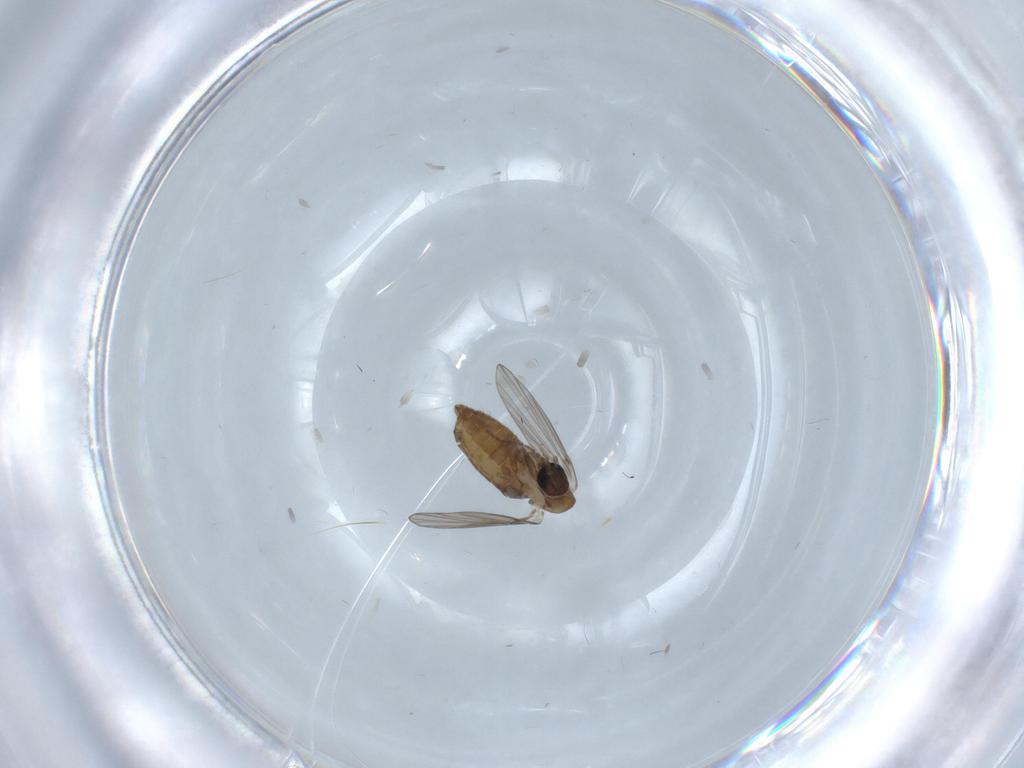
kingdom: Animalia
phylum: Arthropoda
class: Insecta
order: Diptera
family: Psychodidae
